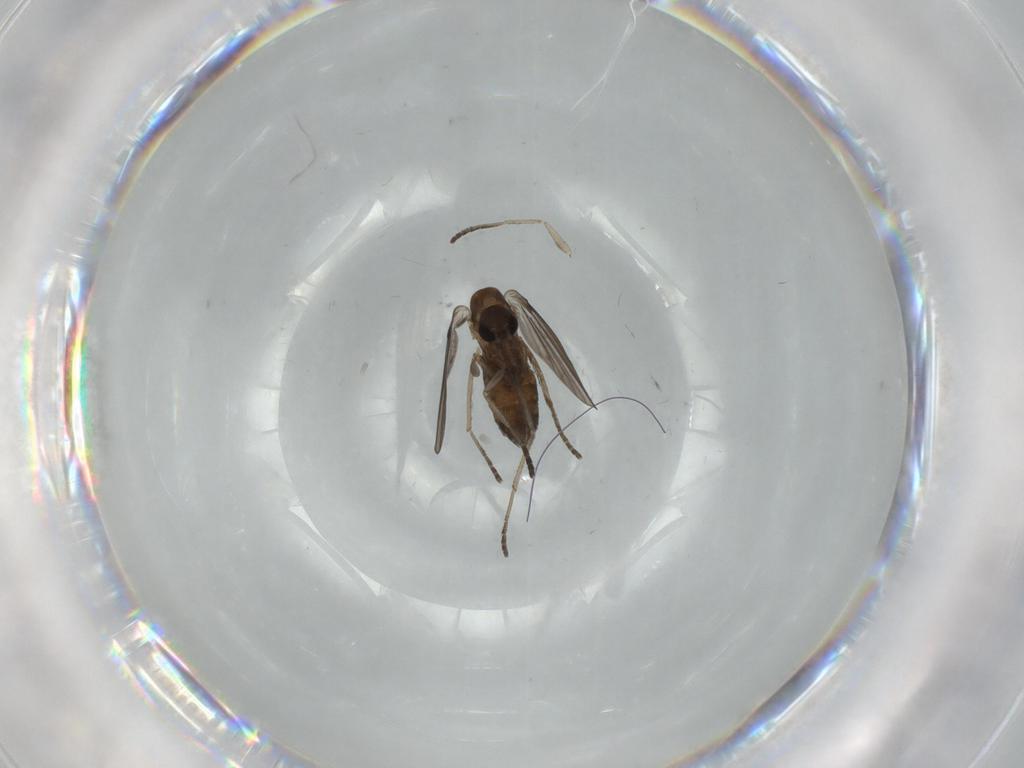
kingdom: Animalia
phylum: Arthropoda
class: Insecta
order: Diptera
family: Psychodidae
